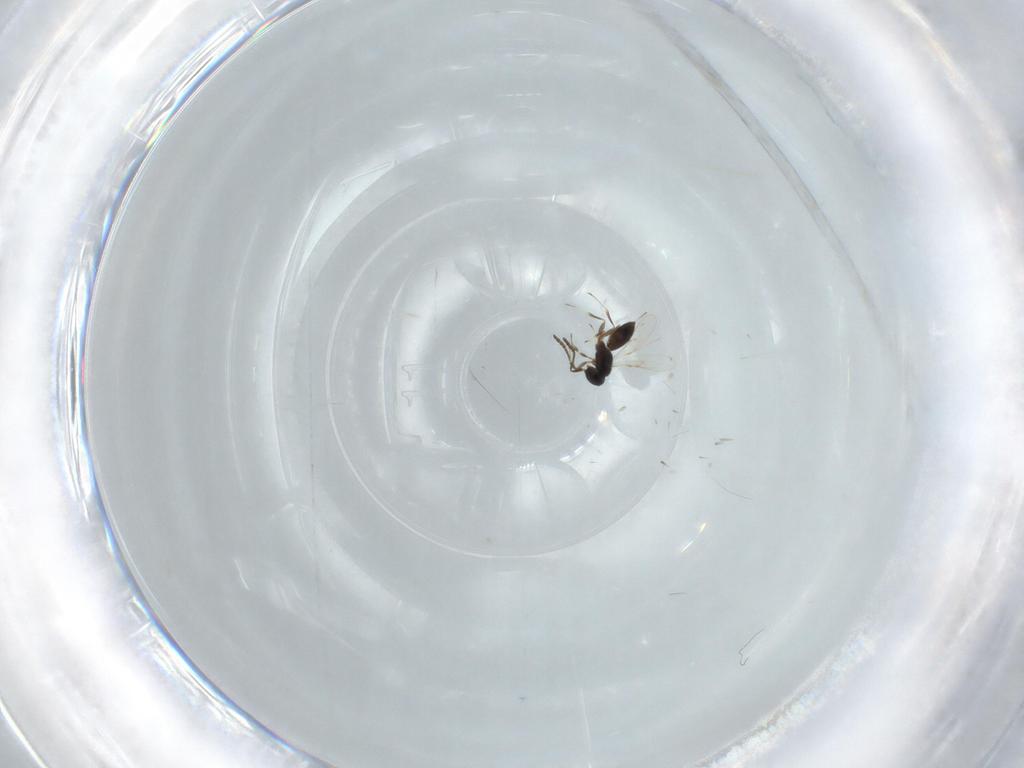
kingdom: Animalia
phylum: Arthropoda
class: Insecta
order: Hymenoptera
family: Scelionidae
